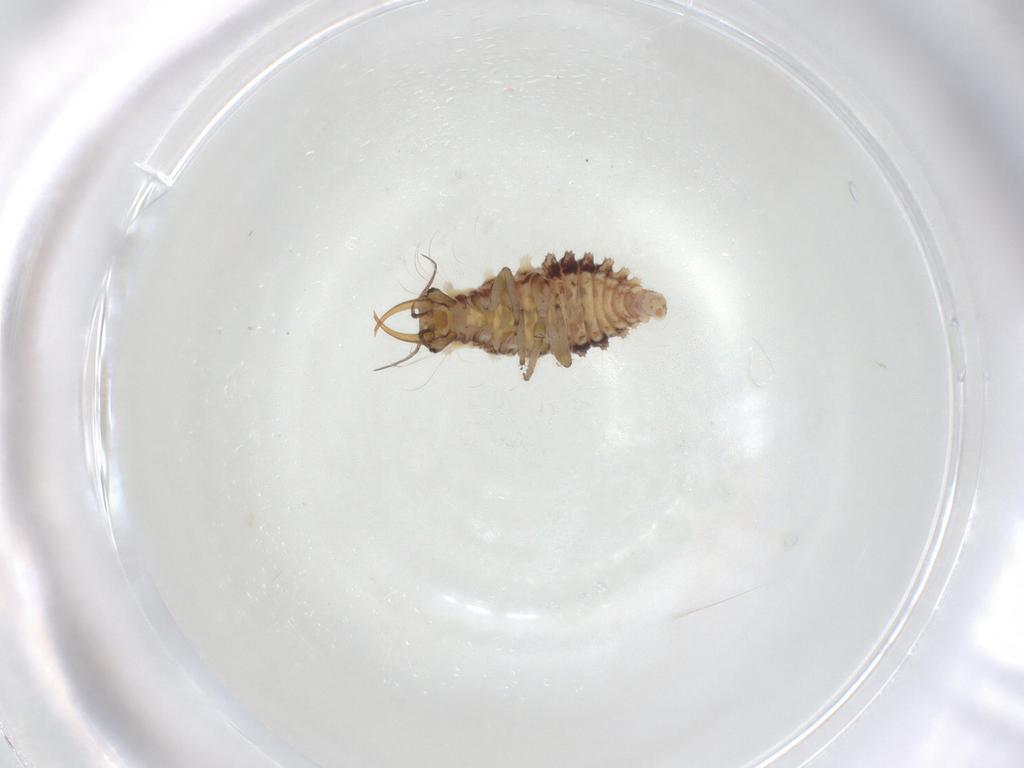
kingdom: Animalia
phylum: Arthropoda
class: Insecta
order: Neuroptera
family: Chrysopidae
